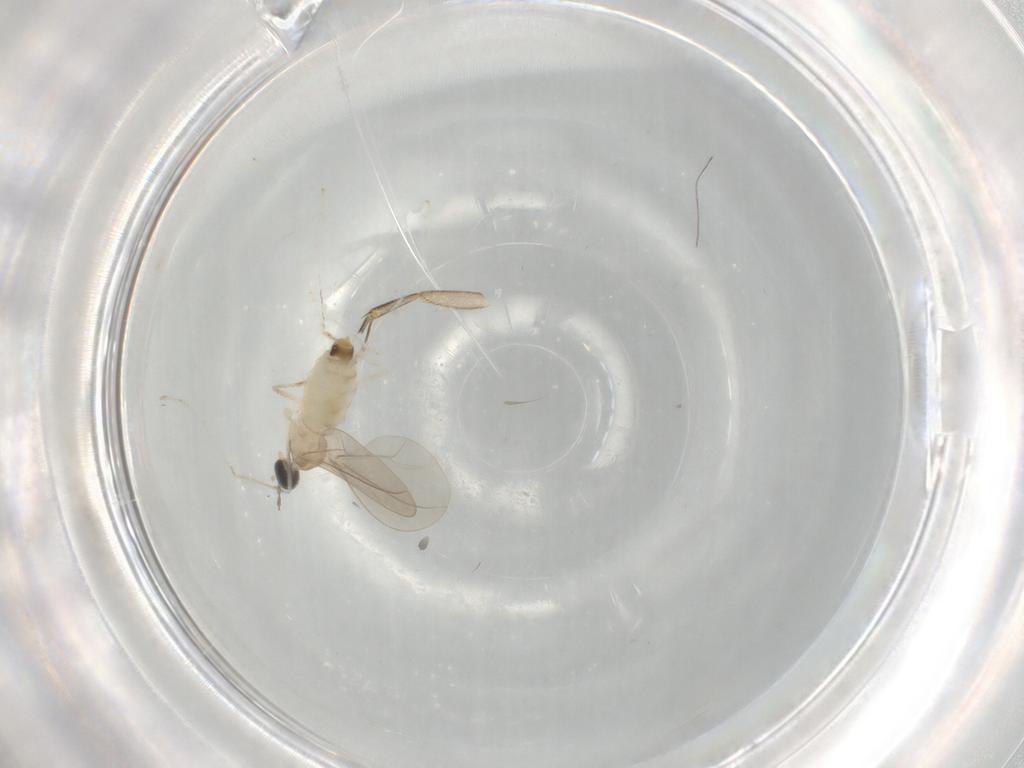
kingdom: Animalia
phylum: Arthropoda
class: Insecta
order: Diptera
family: Cecidomyiidae
